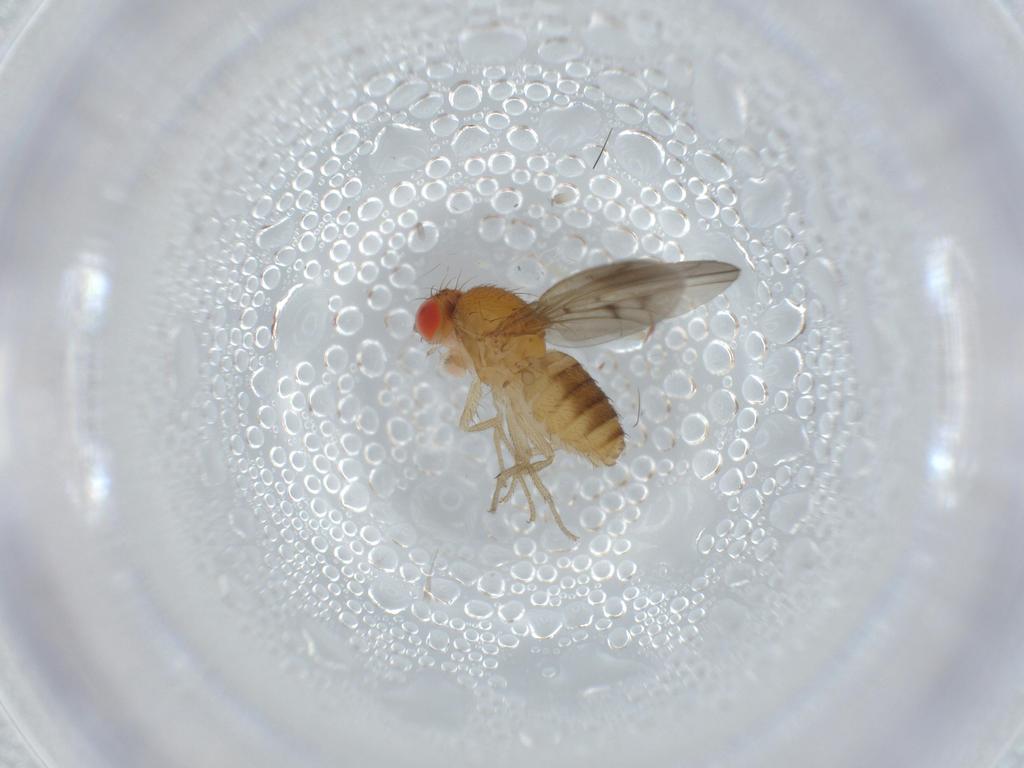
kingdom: Animalia
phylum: Arthropoda
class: Insecta
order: Diptera
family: Drosophilidae
